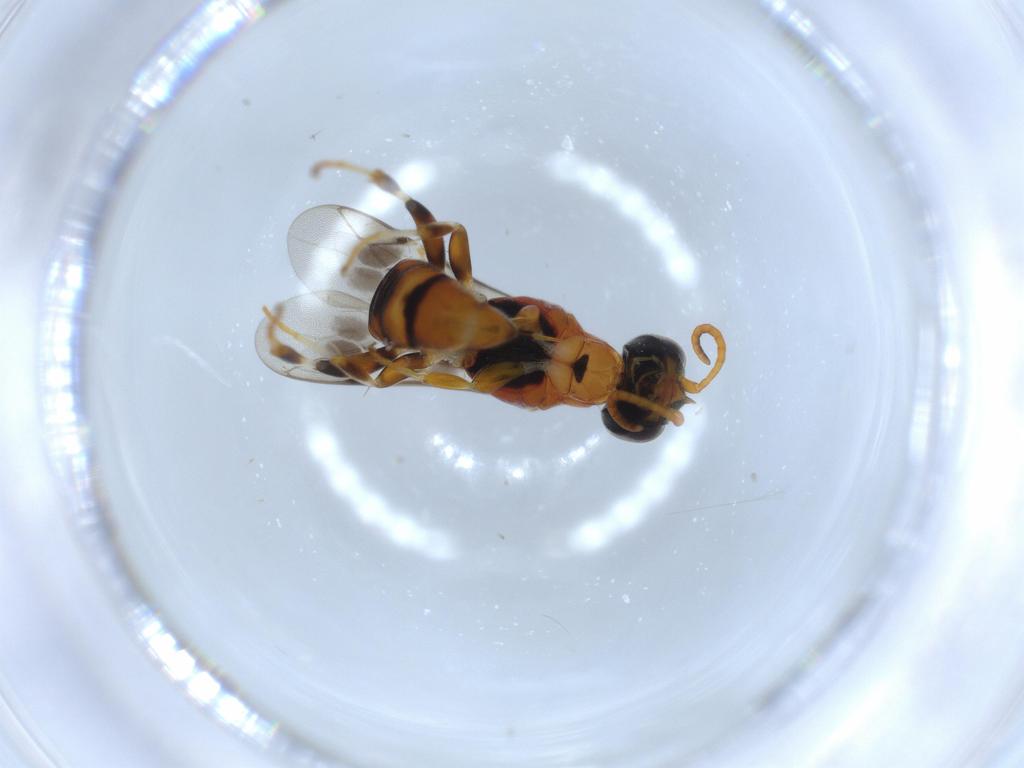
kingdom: Animalia
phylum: Arthropoda
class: Insecta
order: Hymenoptera
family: Crabronidae
